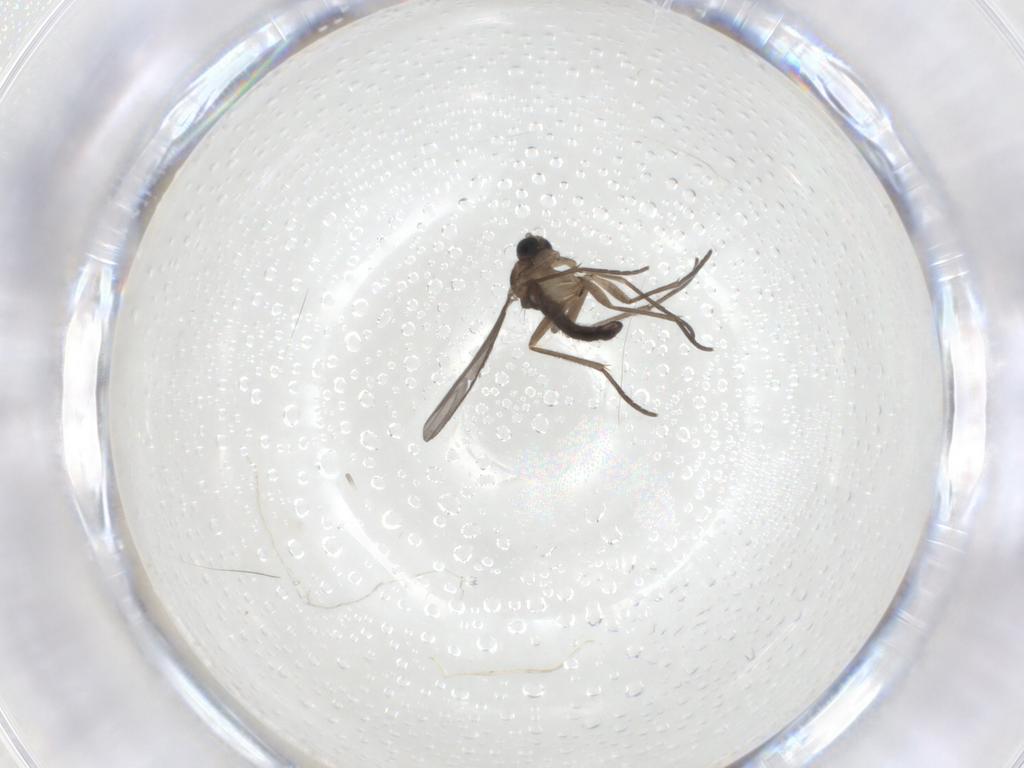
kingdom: Animalia
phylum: Arthropoda
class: Insecta
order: Diptera
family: Sciaridae
